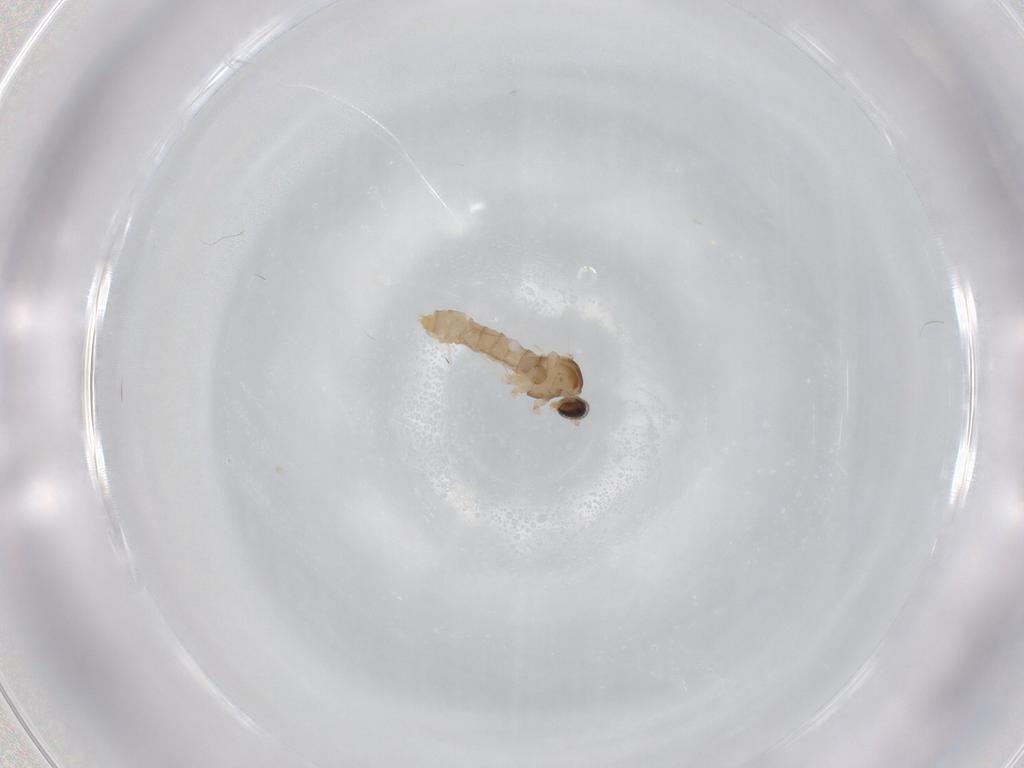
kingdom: Animalia
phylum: Arthropoda
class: Insecta
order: Diptera
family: Cecidomyiidae
